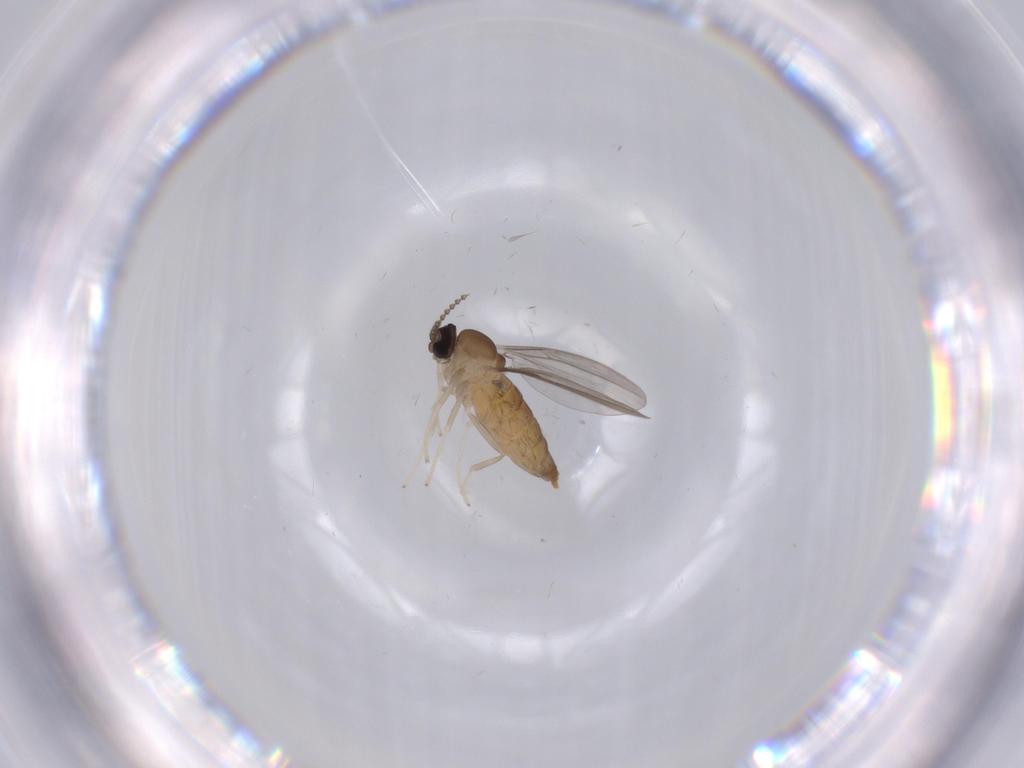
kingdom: Animalia
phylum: Arthropoda
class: Insecta
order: Diptera
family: Cecidomyiidae
